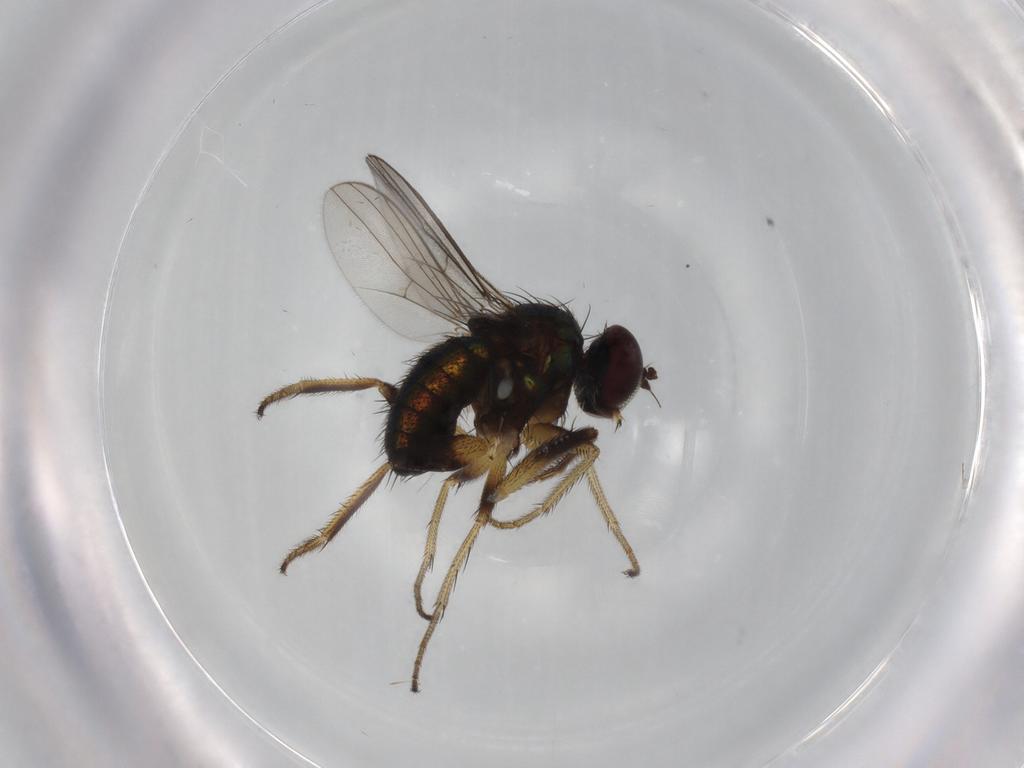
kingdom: Animalia
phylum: Arthropoda
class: Insecta
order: Diptera
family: Dolichopodidae
